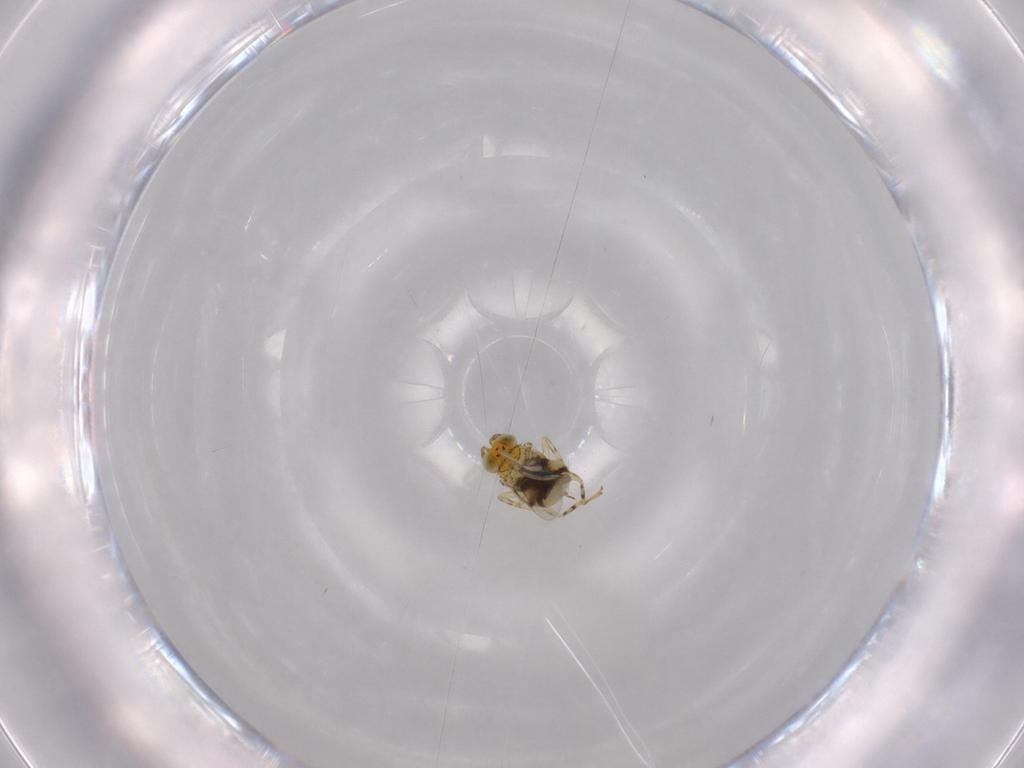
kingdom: Animalia
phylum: Arthropoda
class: Insecta
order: Hymenoptera
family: Aphelinidae
